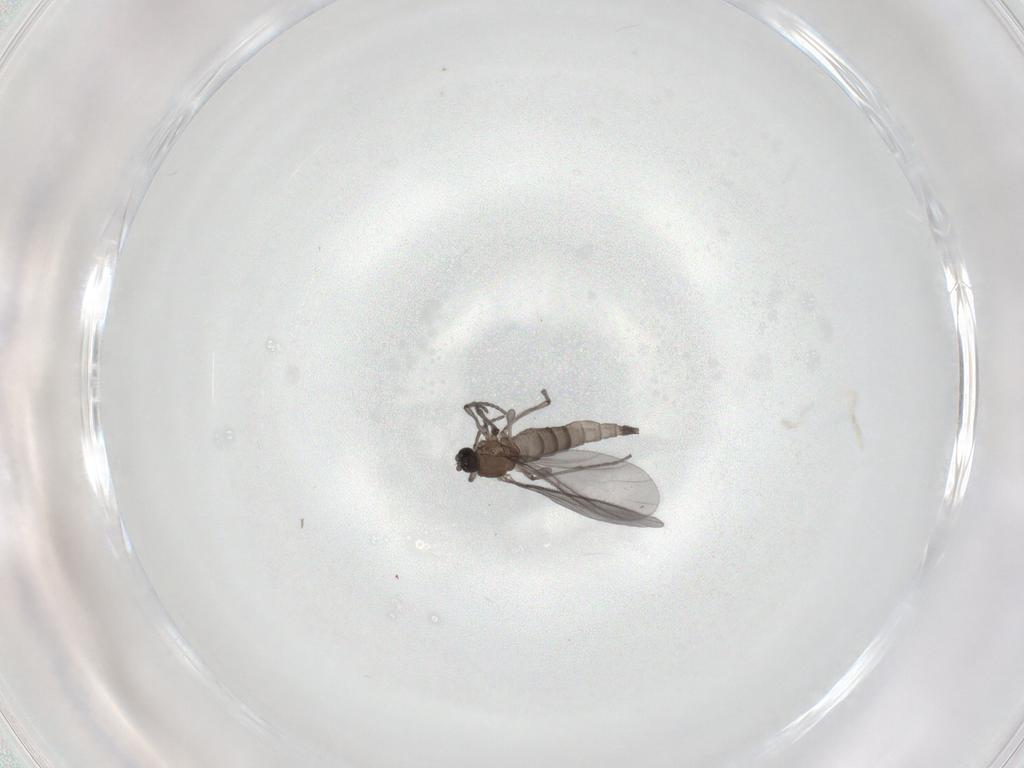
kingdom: Animalia
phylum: Arthropoda
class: Insecta
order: Diptera
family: Sciaridae
